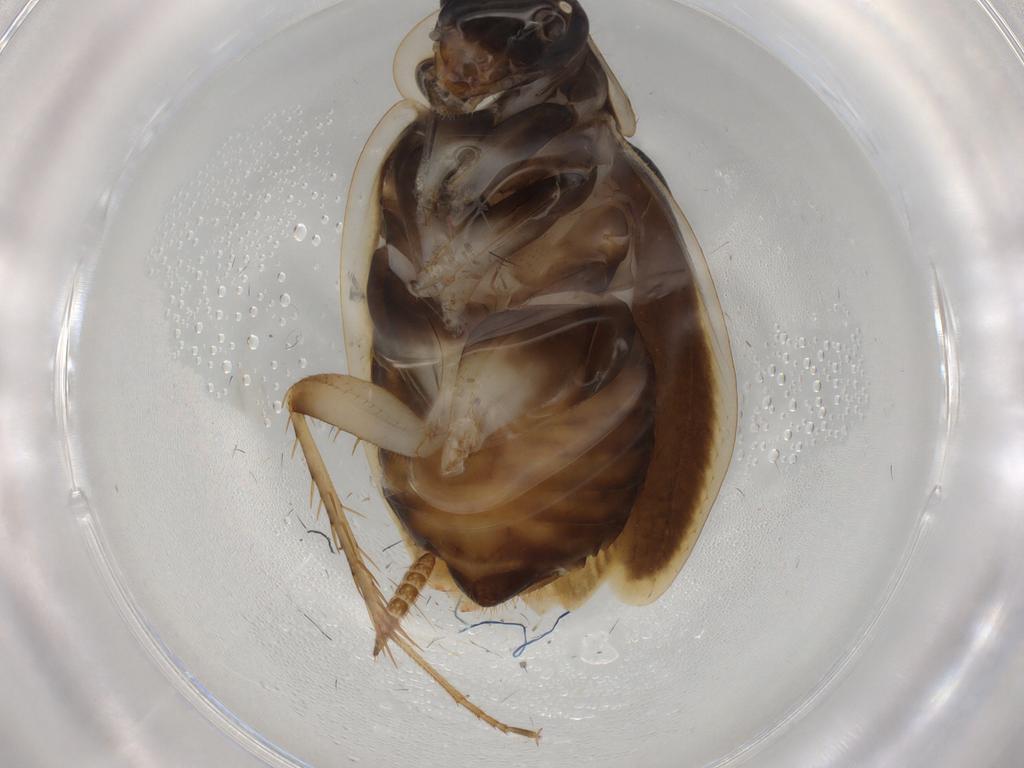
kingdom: Animalia
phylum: Arthropoda
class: Insecta
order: Blattodea
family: Ectobiidae
